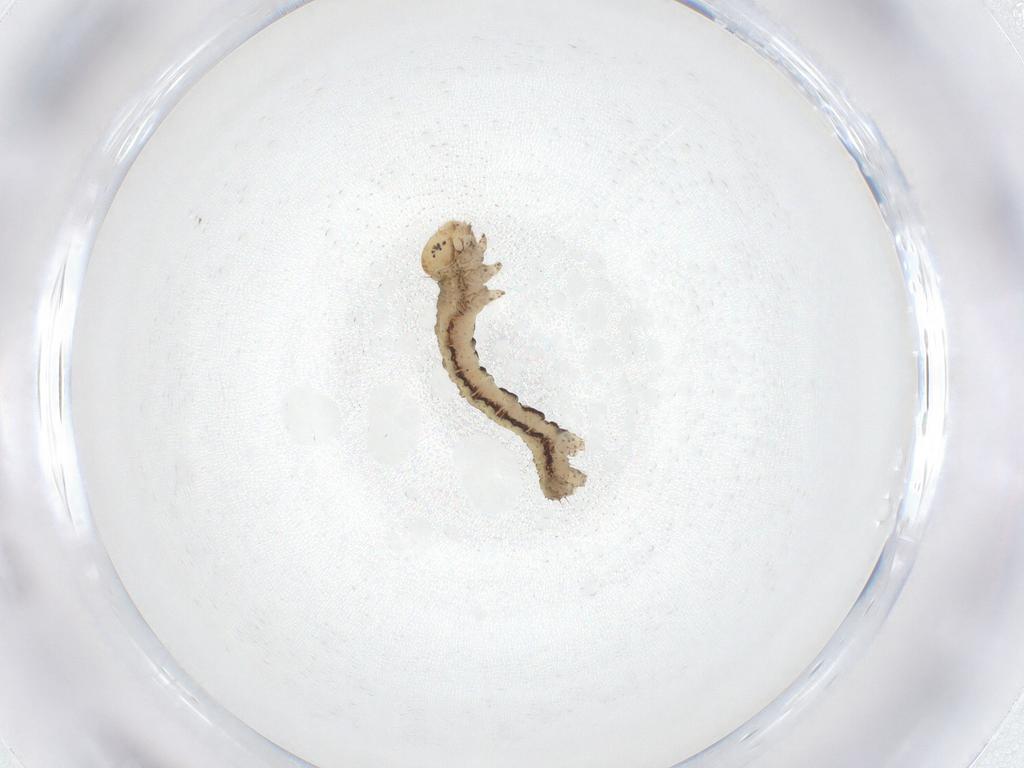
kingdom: Animalia
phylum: Arthropoda
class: Insecta
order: Lepidoptera
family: Geometridae
